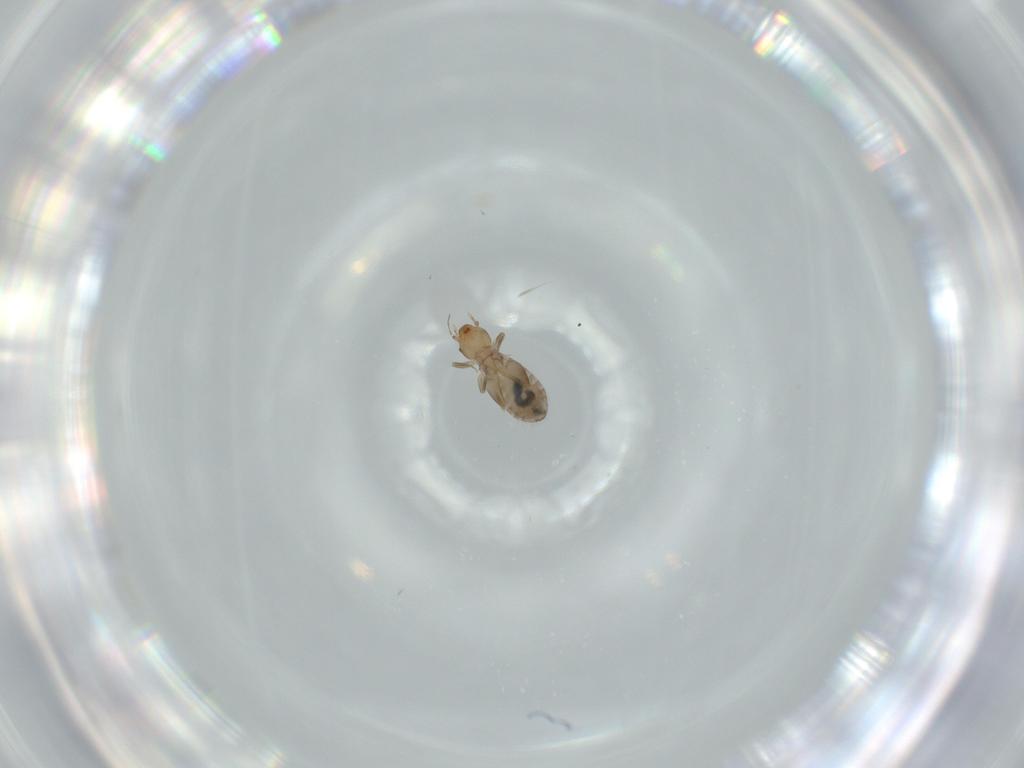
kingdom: Animalia
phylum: Arthropoda
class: Insecta
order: Psocodea
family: Liposcelididae
